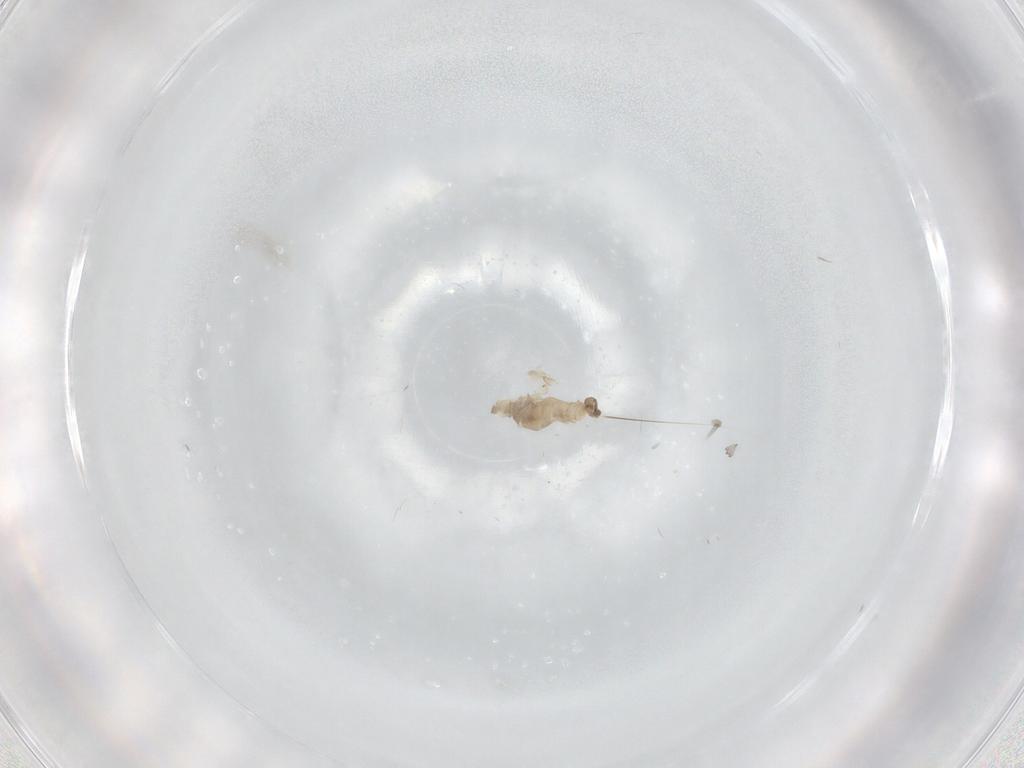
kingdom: Animalia
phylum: Arthropoda
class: Insecta
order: Diptera
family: Cecidomyiidae
